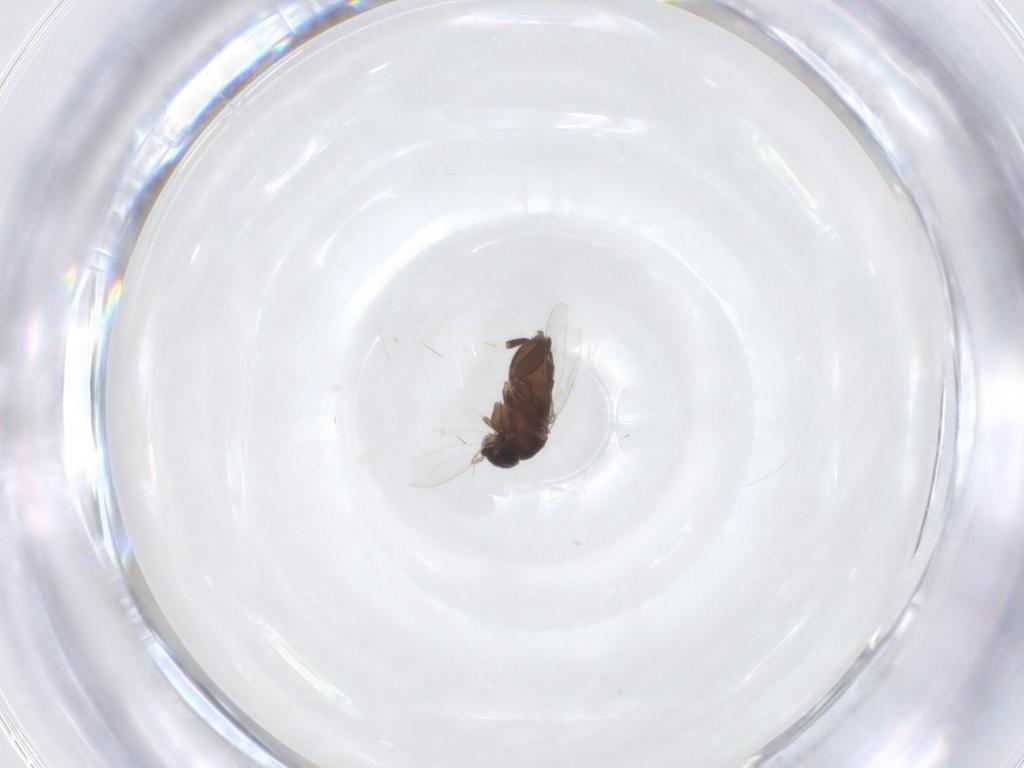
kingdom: Animalia
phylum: Arthropoda
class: Insecta
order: Diptera
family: Phoridae
